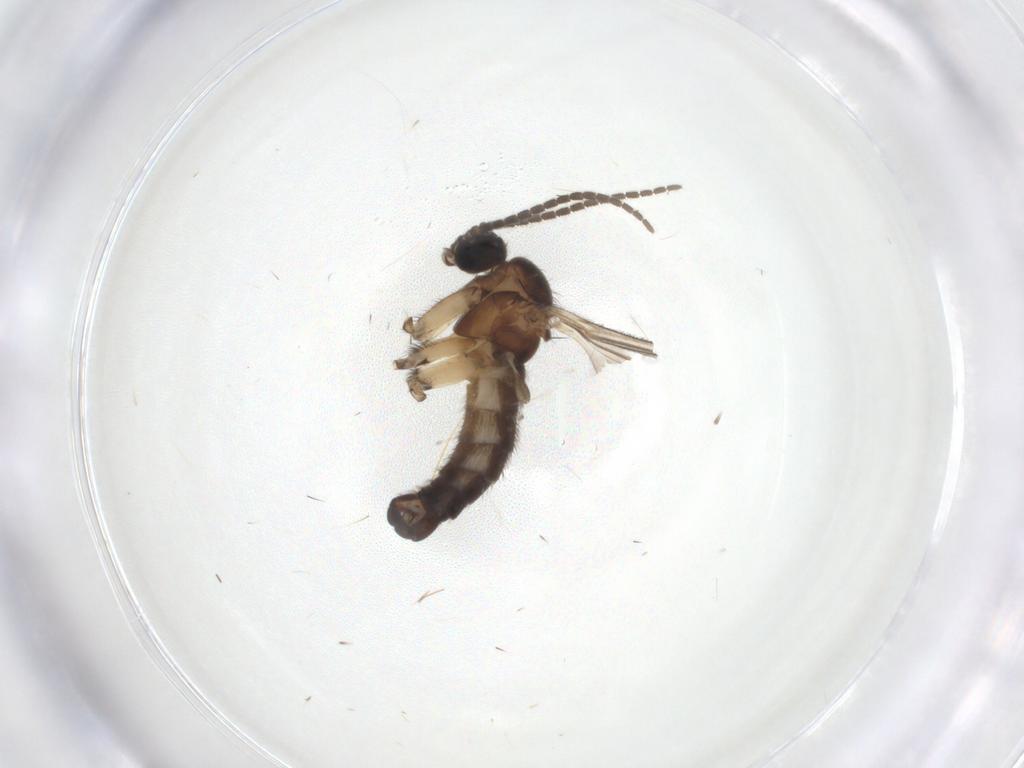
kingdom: Animalia
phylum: Arthropoda
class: Insecta
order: Diptera
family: Sciaridae
